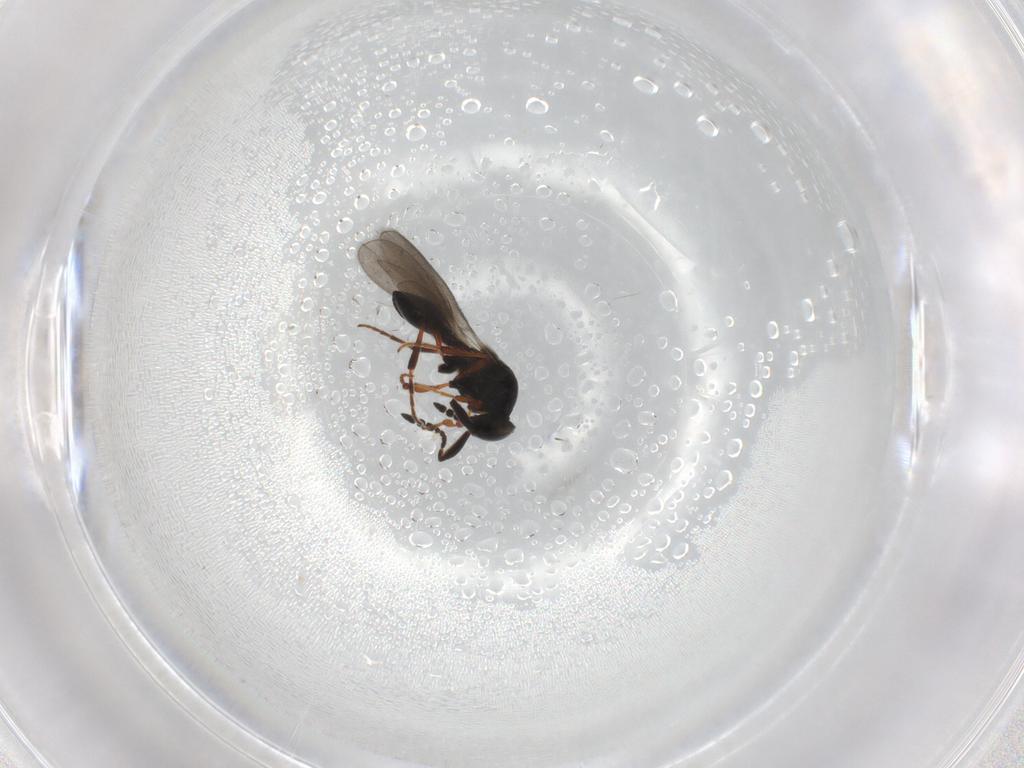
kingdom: Animalia
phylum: Arthropoda
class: Insecta
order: Hymenoptera
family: Platygastridae
